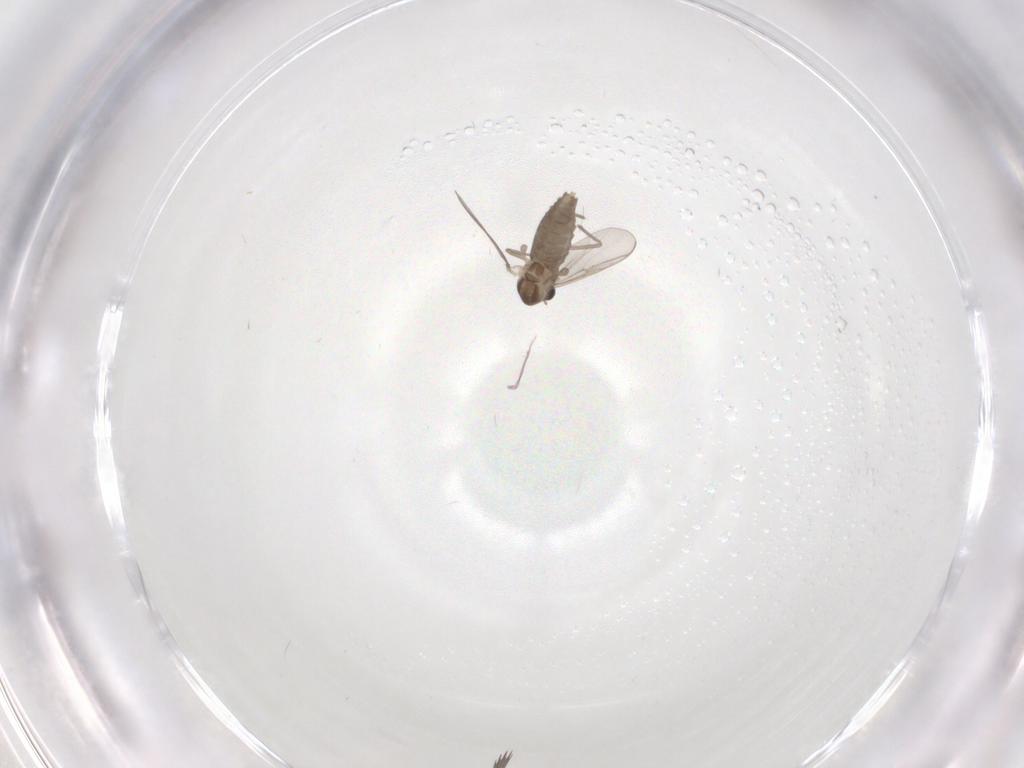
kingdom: Animalia
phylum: Arthropoda
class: Insecta
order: Diptera
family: Chironomidae
